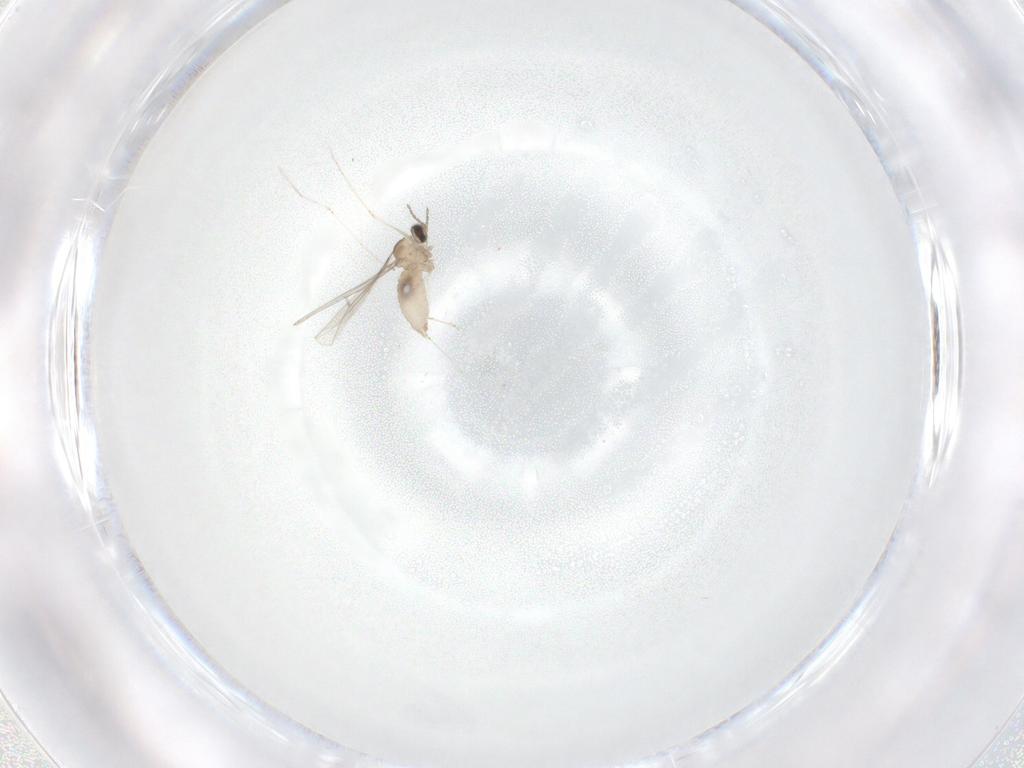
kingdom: Animalia
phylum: Arthropoda
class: Insecta
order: Diptera
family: Cecidomyiidae
